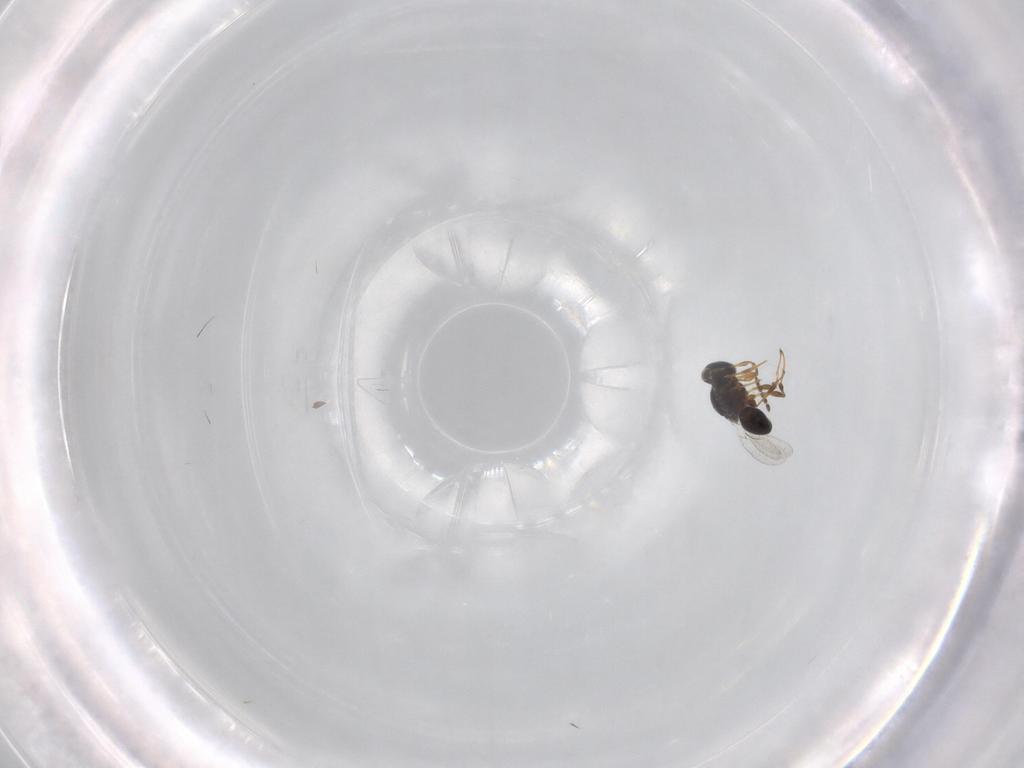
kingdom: Animalia
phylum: Arthropoda
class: Insecta
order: Hymenoptera
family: Platygastridae
